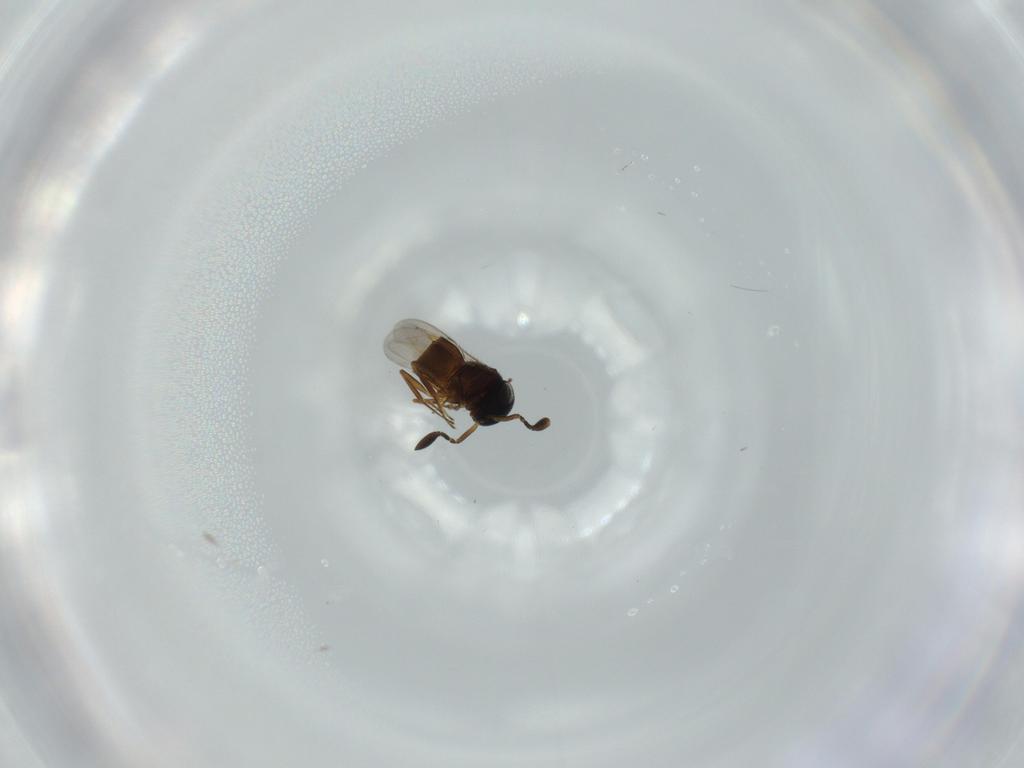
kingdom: Animalia
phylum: Arthropoda
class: Insecta
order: Hymenoptera
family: Scelionidae
